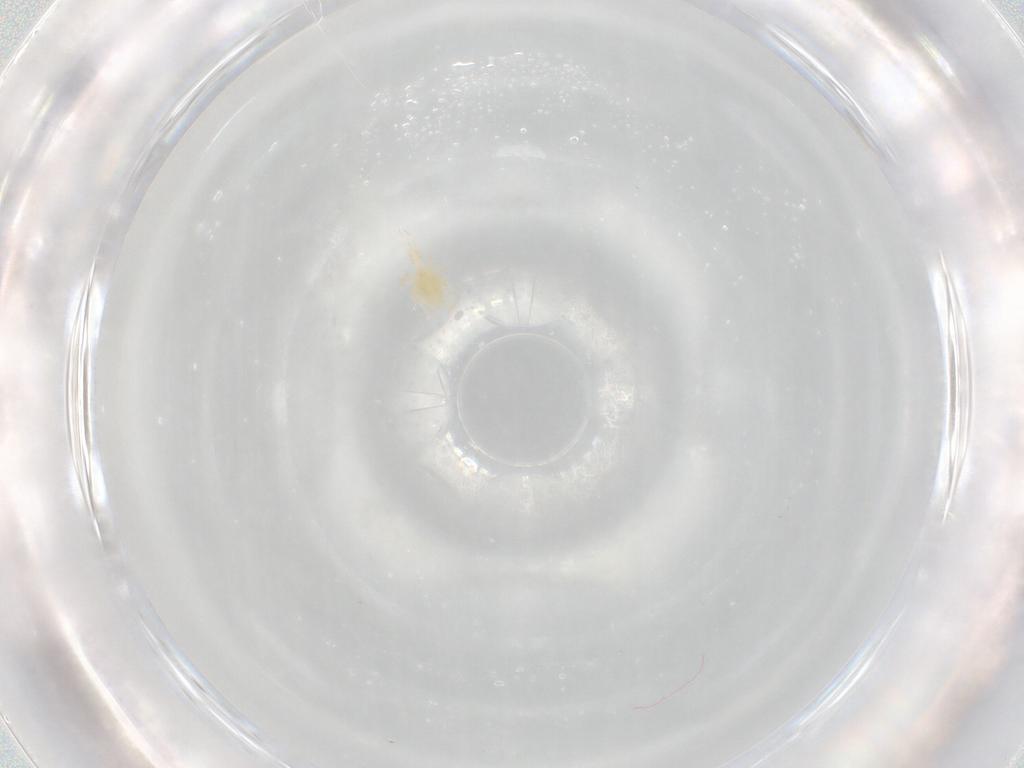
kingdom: Animalia
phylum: Arthropoda
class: Arachnida
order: Trombidiformes
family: Cunaxidae
